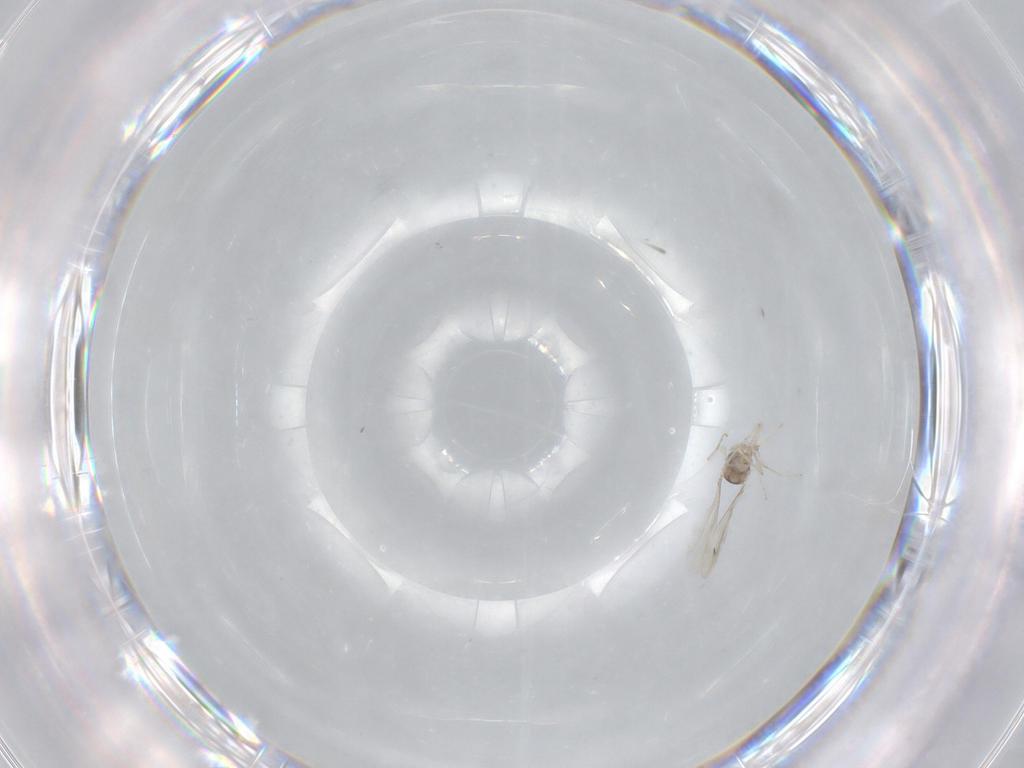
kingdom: Animalia
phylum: Arthropoda
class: Insecta
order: Diptera
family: Cecidomyiidae
